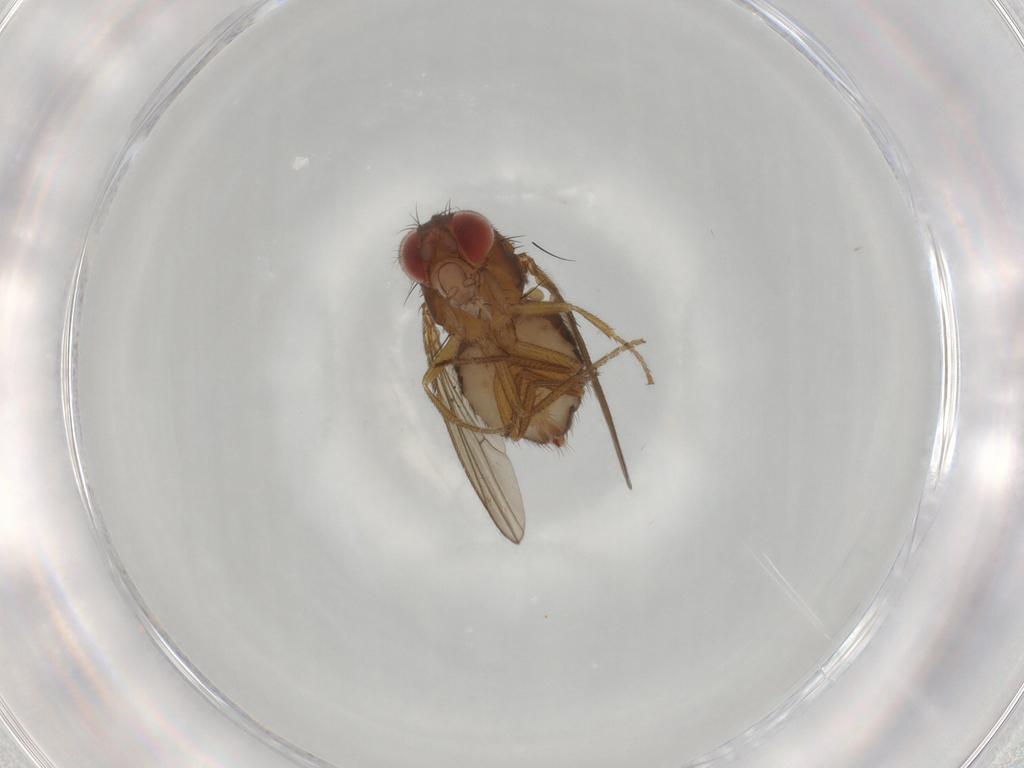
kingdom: Animalia
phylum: Arthropoda
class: Insecta
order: Diptera
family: Drosophilidae
